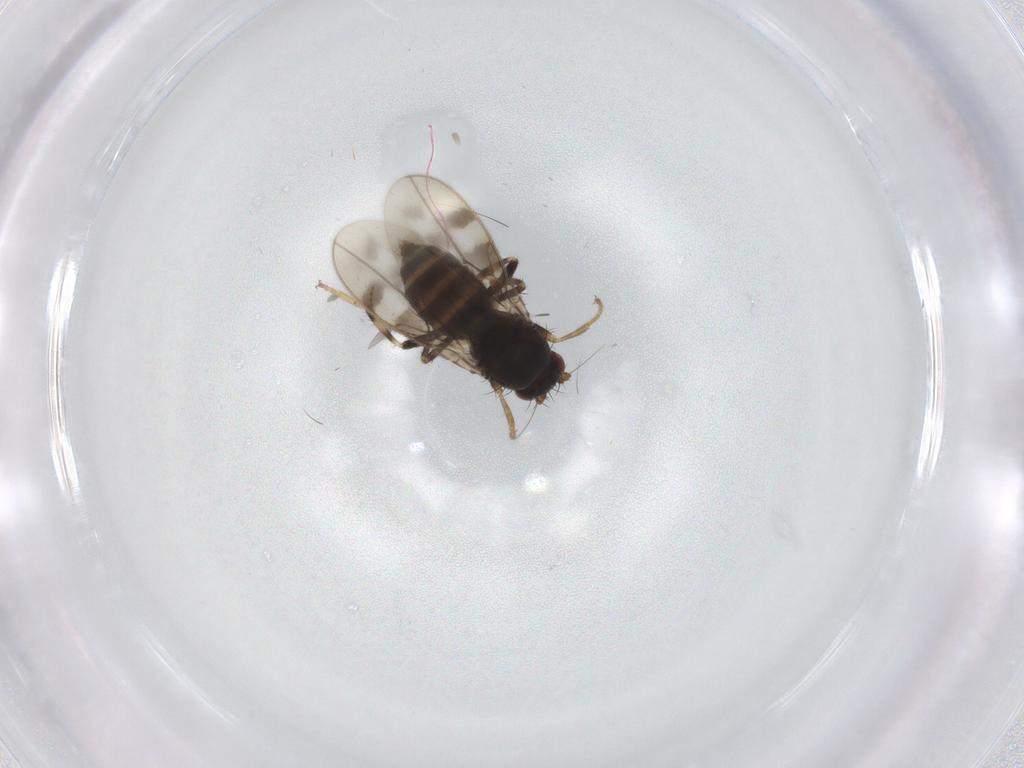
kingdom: Animalia
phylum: Arthropoda
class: Insecta
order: Diptera
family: Sphaeroceridae
